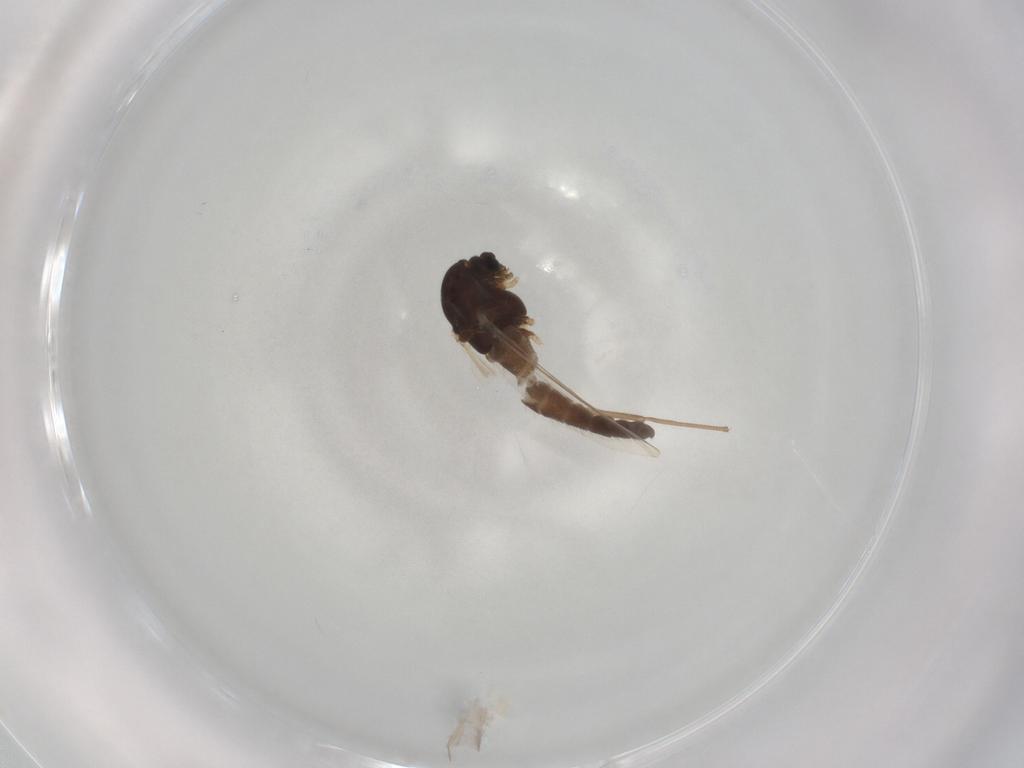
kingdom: Animalia
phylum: Arthropoda
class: Insecta
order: Diptera
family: Chironomidae
